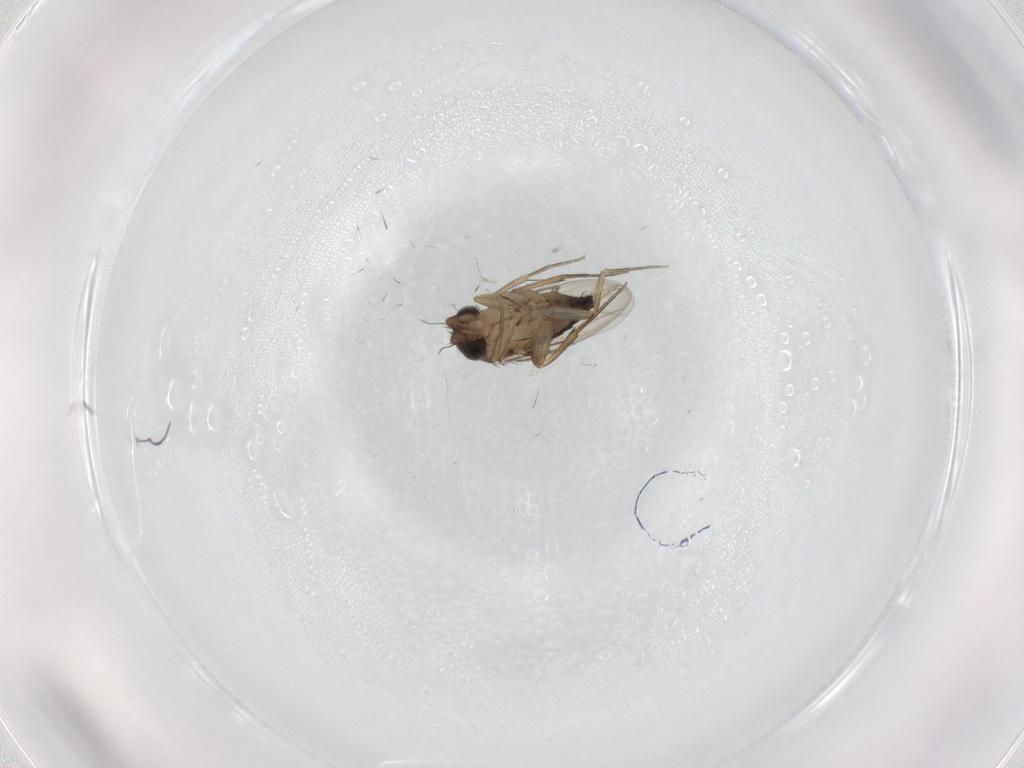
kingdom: Animalia
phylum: Arthropoda
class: Insecta
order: Diptera
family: Phoridae
